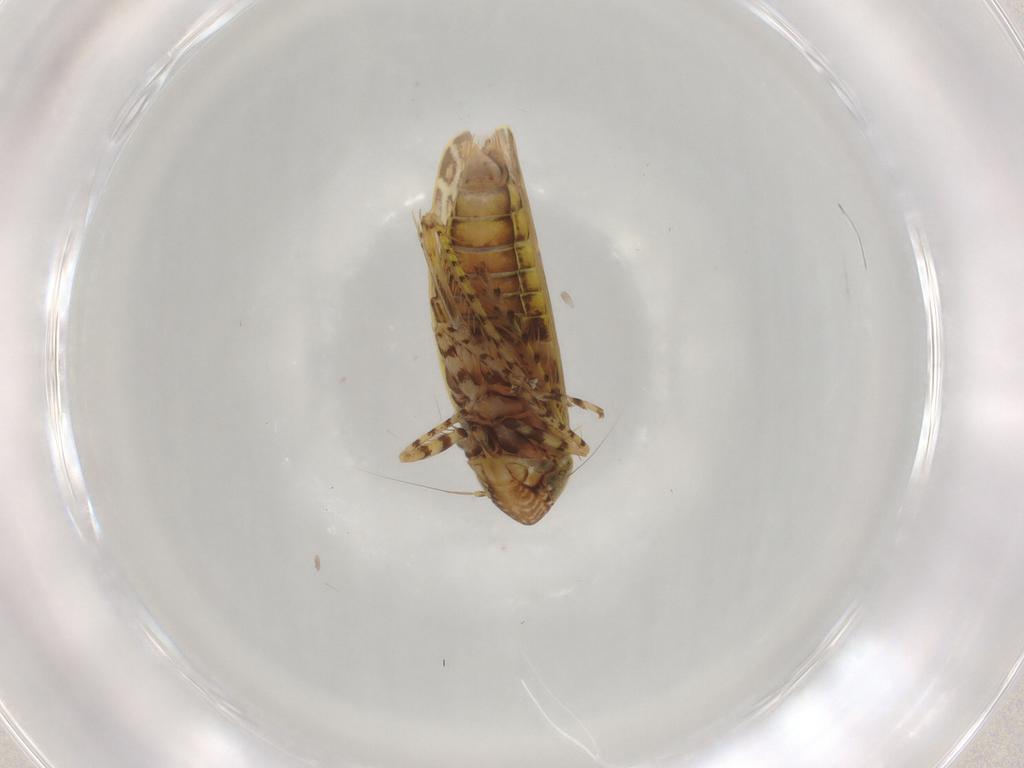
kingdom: Animalia
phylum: Arthropoda
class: Insecta
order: Hemiptera
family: Cicadellidae
